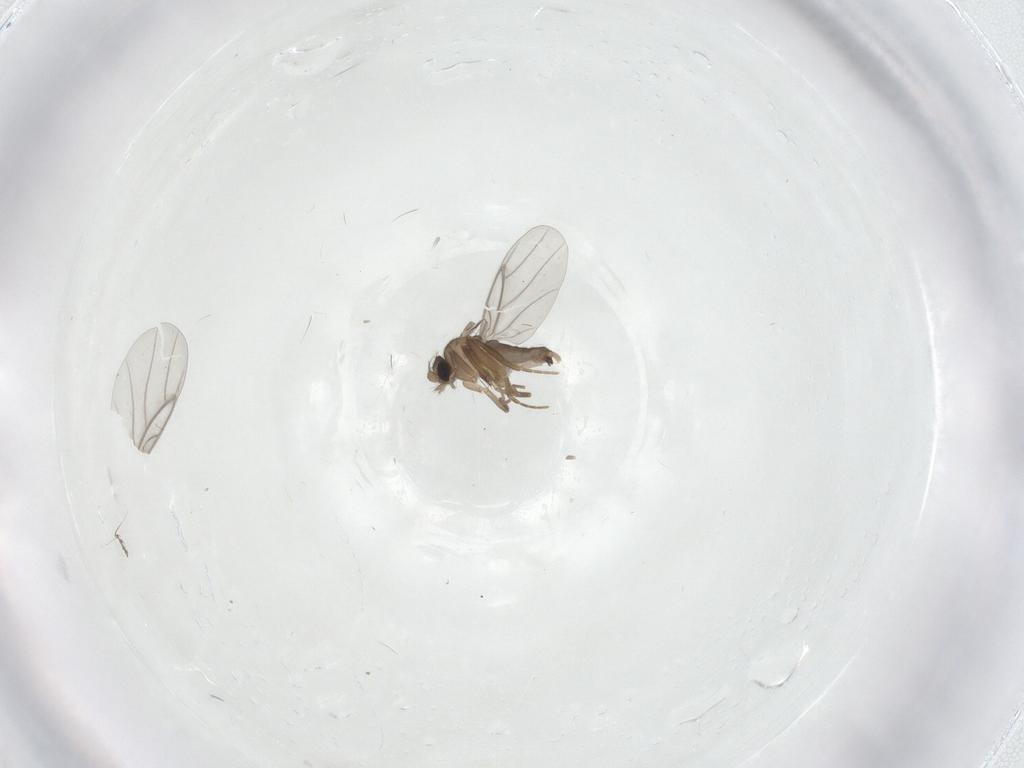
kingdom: Animalia
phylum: Arthropoda
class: Insecta
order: Diptera
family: Cecidomyiidae
